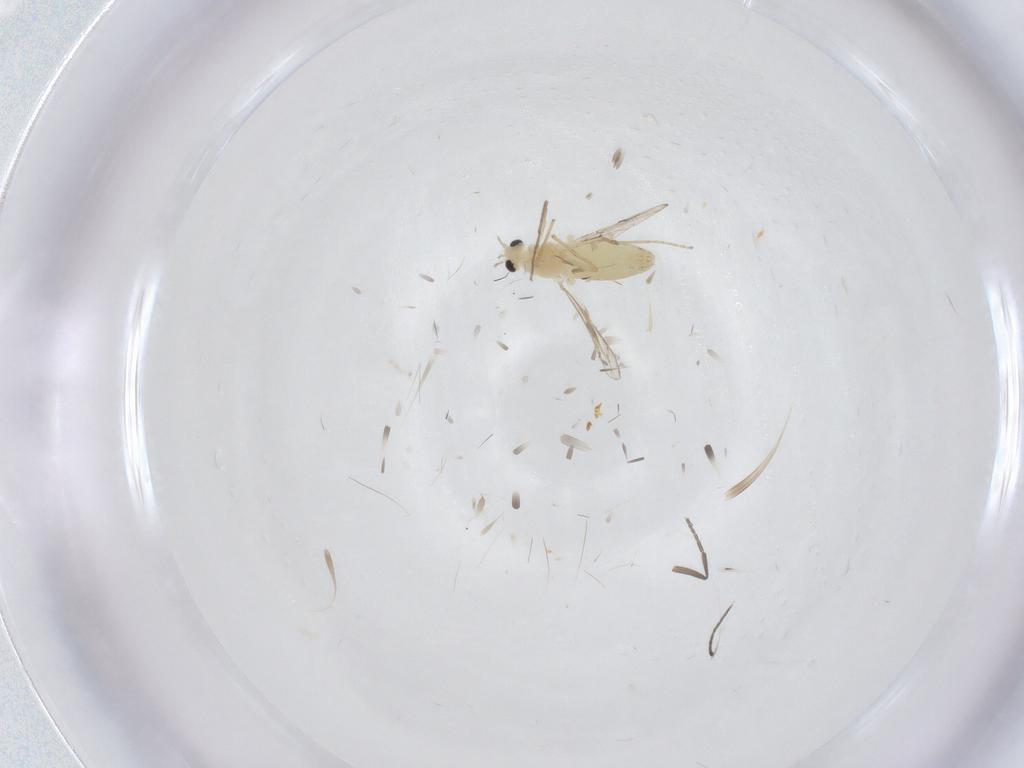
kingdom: Animalia
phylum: Arthropoda
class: Insecta
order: Diptera
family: Chironomidae
